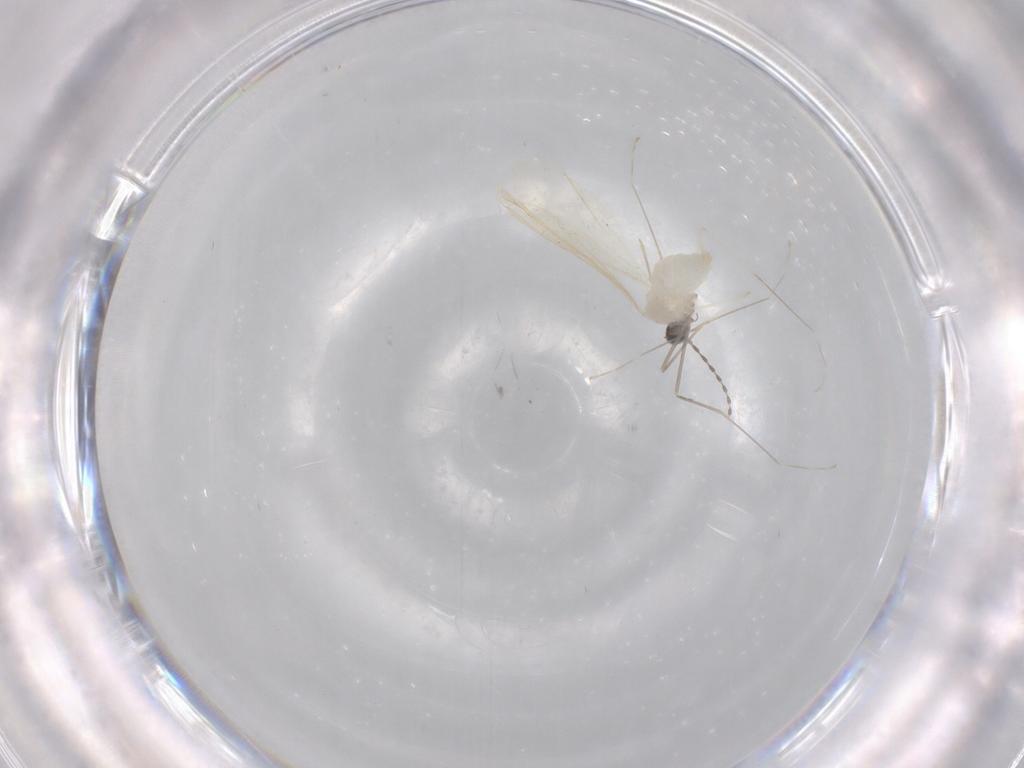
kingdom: Animalia
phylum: Arthropoda
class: Insecta
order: Diptera
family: Cecidomyiidae
